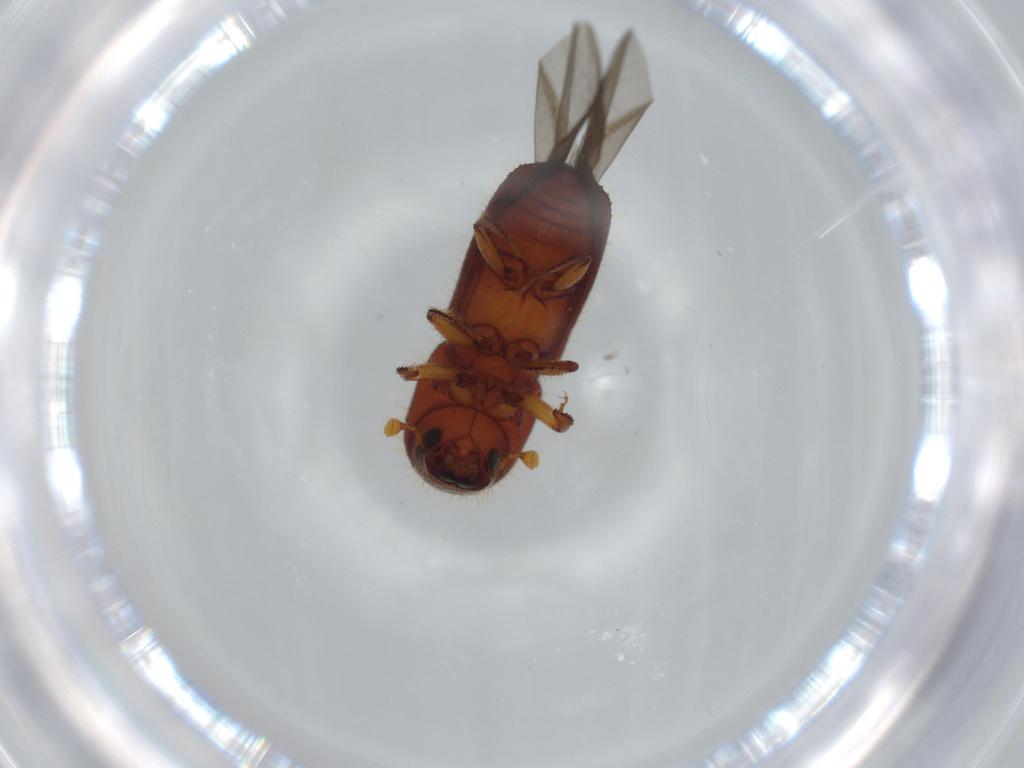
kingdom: Animalia
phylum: Arthropoda
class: Insecta
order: Coleoptera
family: Curculionidae
